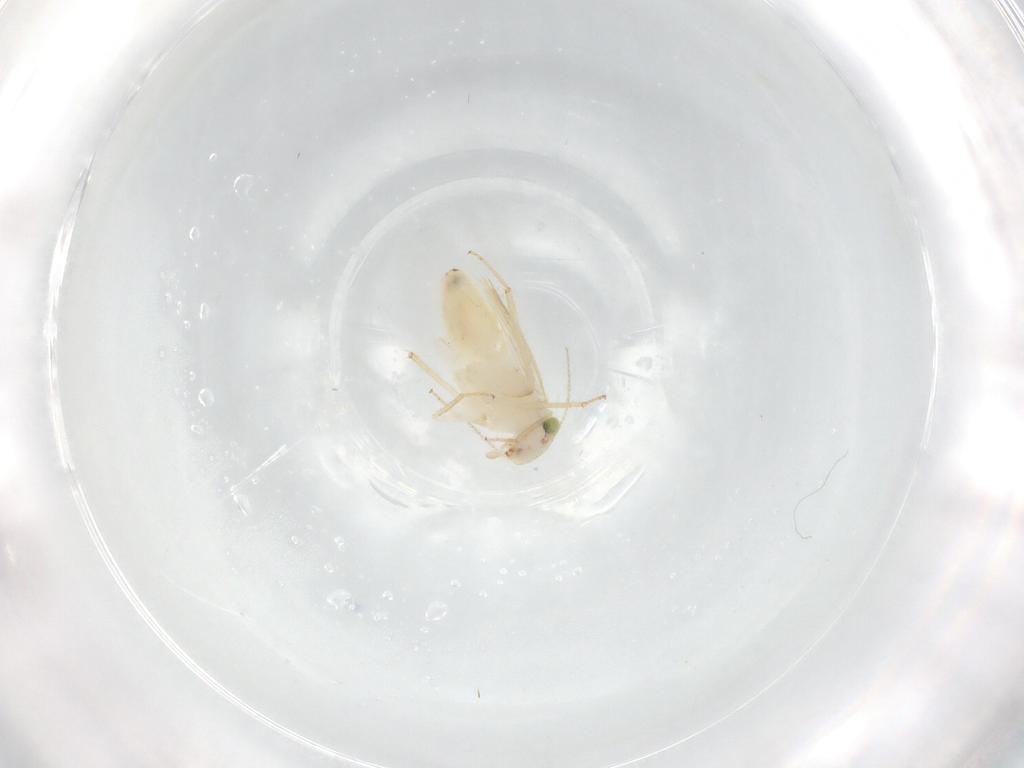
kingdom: Animalia
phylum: Arthropoda
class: Insecta
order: Psocodea
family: Lepidopsocidae
